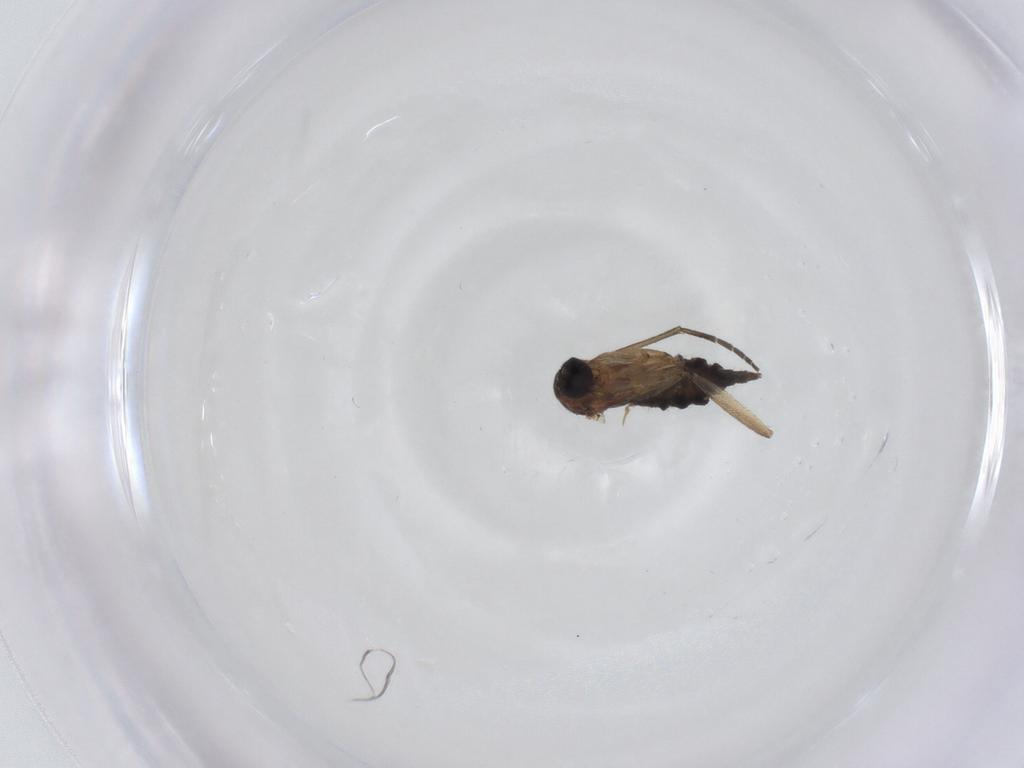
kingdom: Animalia
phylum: Arthropoda
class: Insecta
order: Diptera
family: Sciaridae
